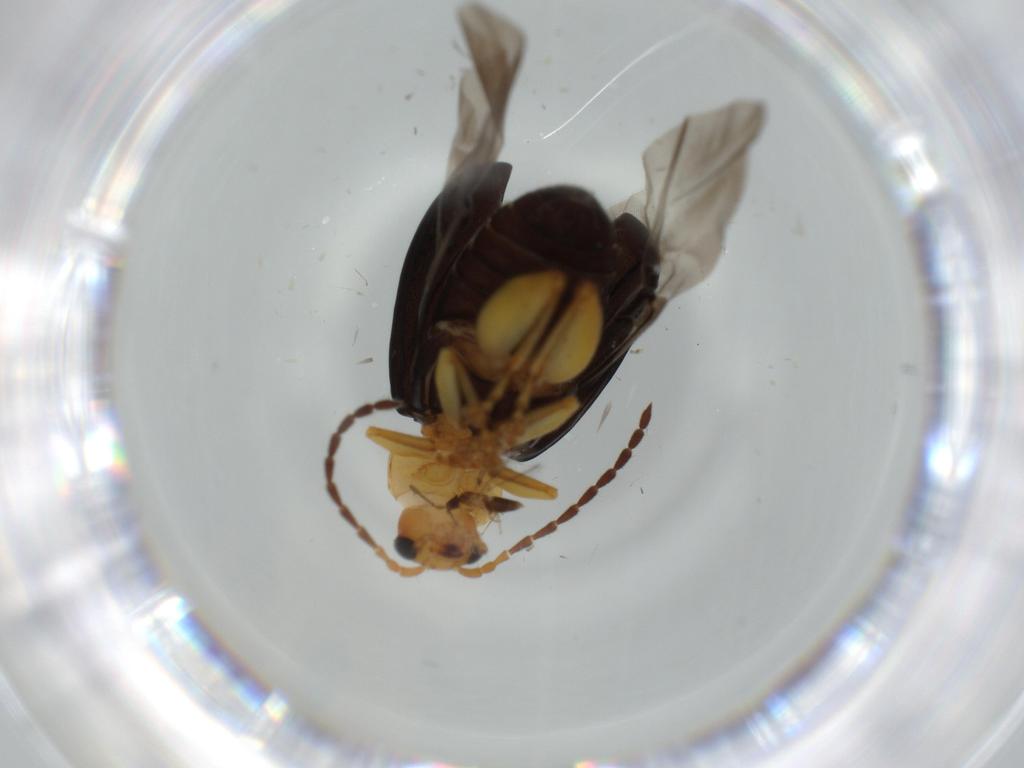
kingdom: Animalia
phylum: Arthropoda
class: Insecta
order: Coleoptera
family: Chrysomelidae
